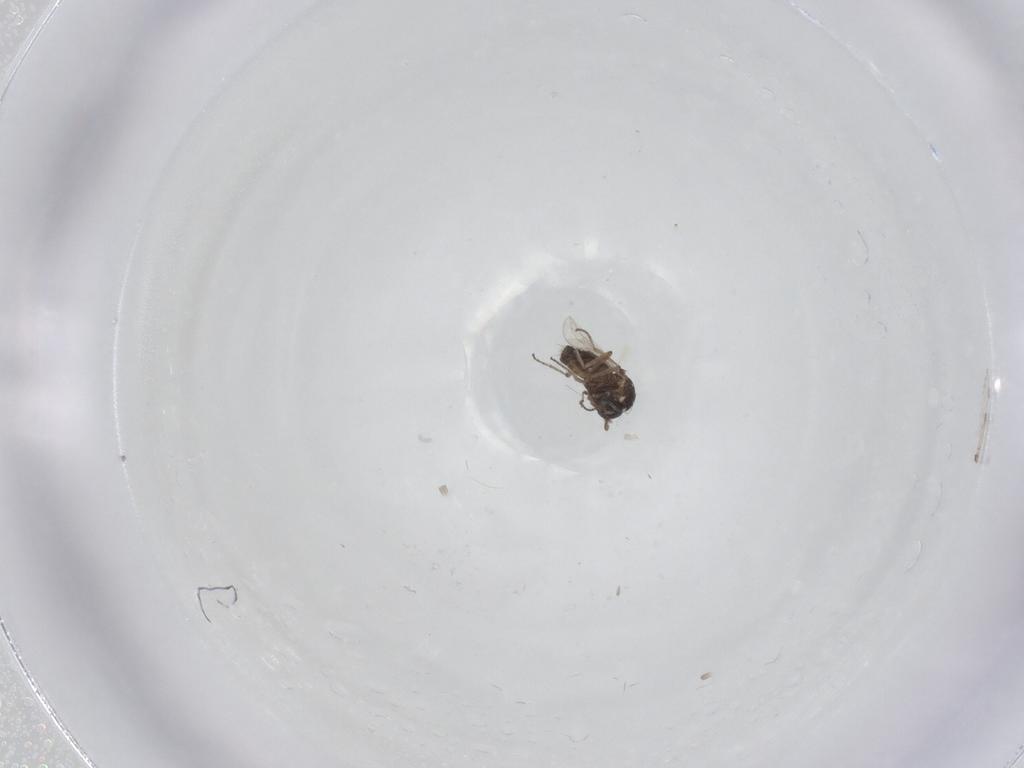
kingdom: Animalia
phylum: Arthropoda
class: Insecta
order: Diptera
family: Milichiidae
